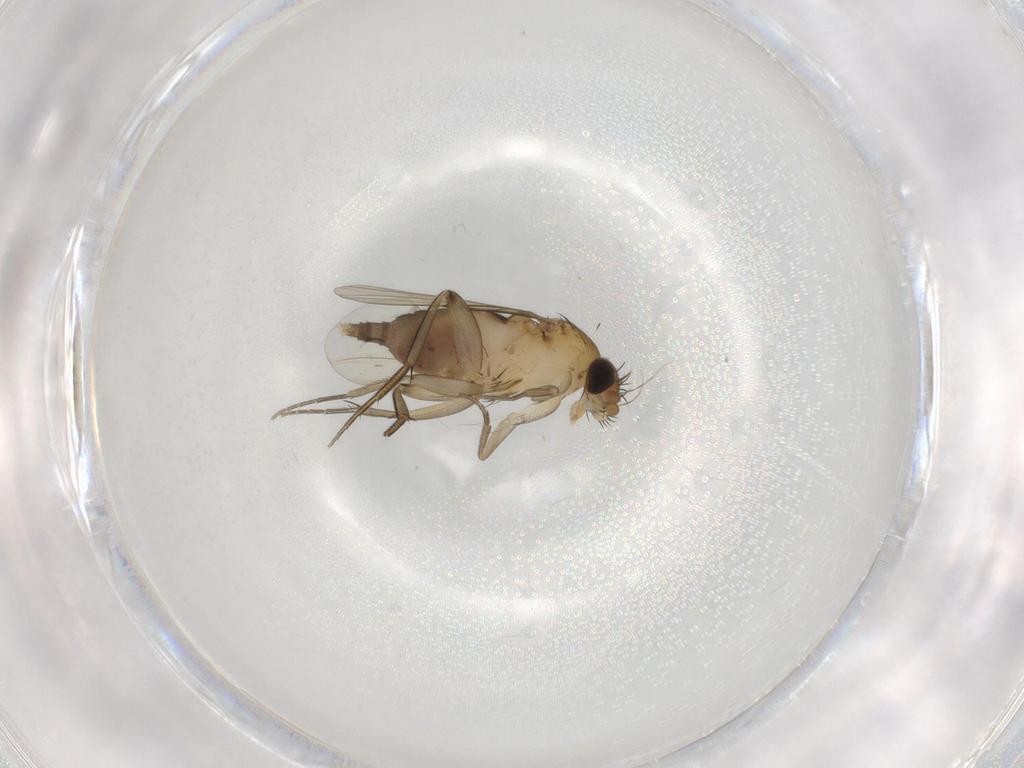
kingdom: Animalia
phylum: Arthropoda
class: Insecta
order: Diptera
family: Phoridae
